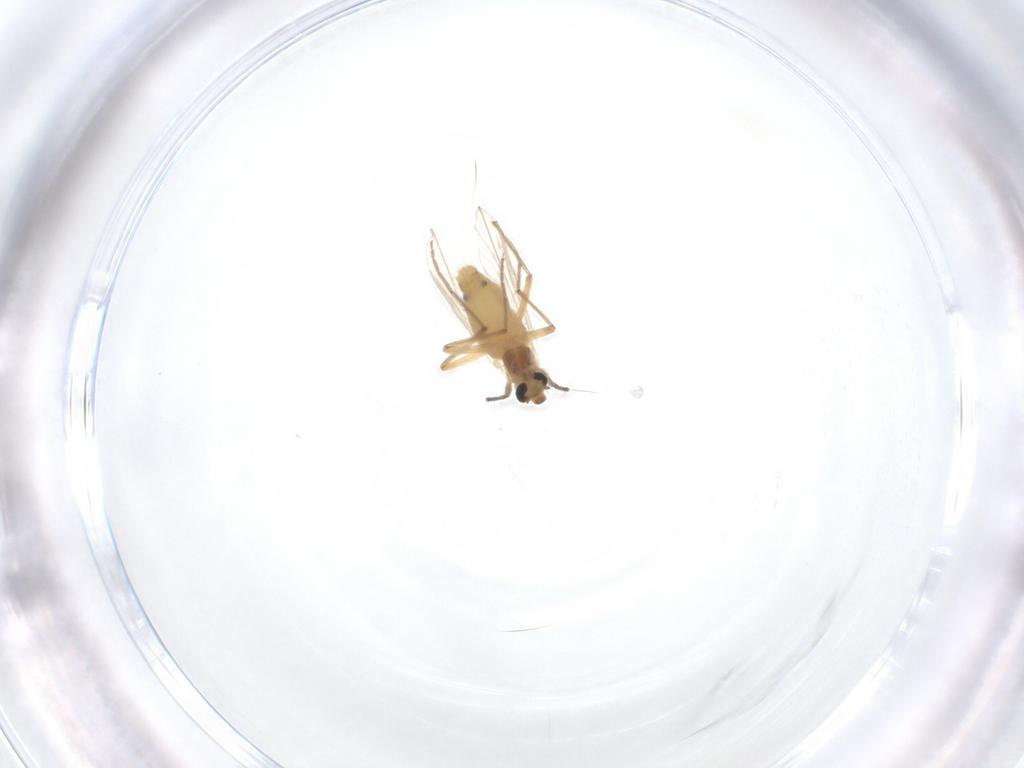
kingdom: Animalia
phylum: Arthropoda
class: Insecta
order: Diptera
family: Chironomidae
